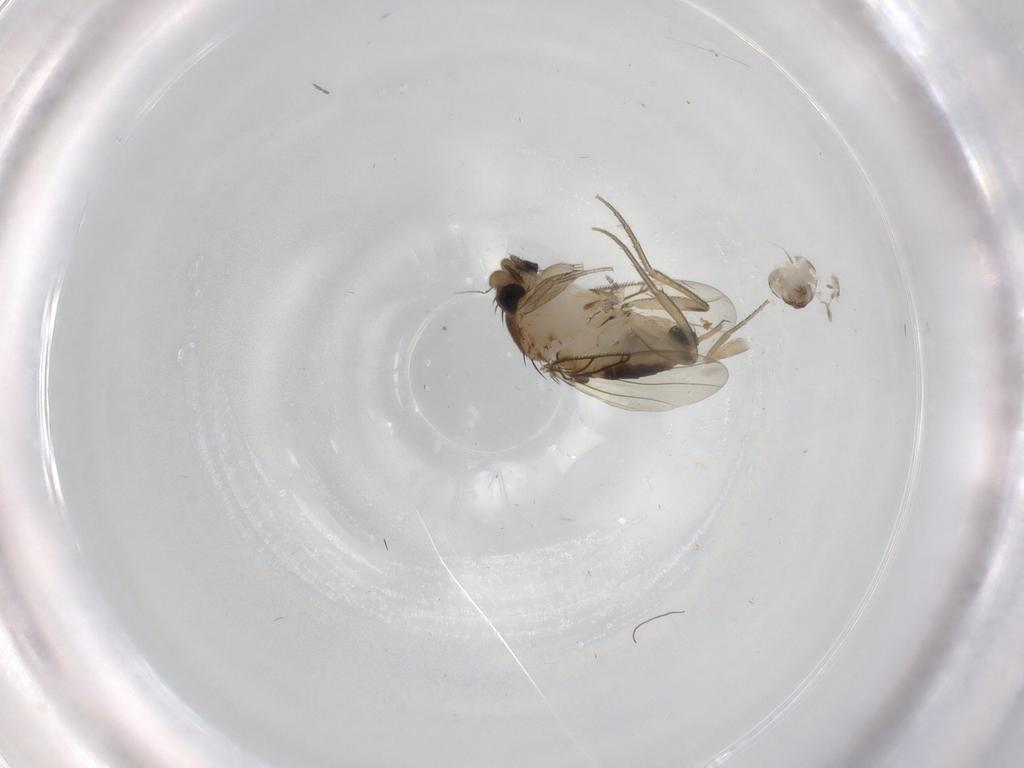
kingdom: Animalia
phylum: Arthropoda
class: Insecta
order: Diptera
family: Phoridae
